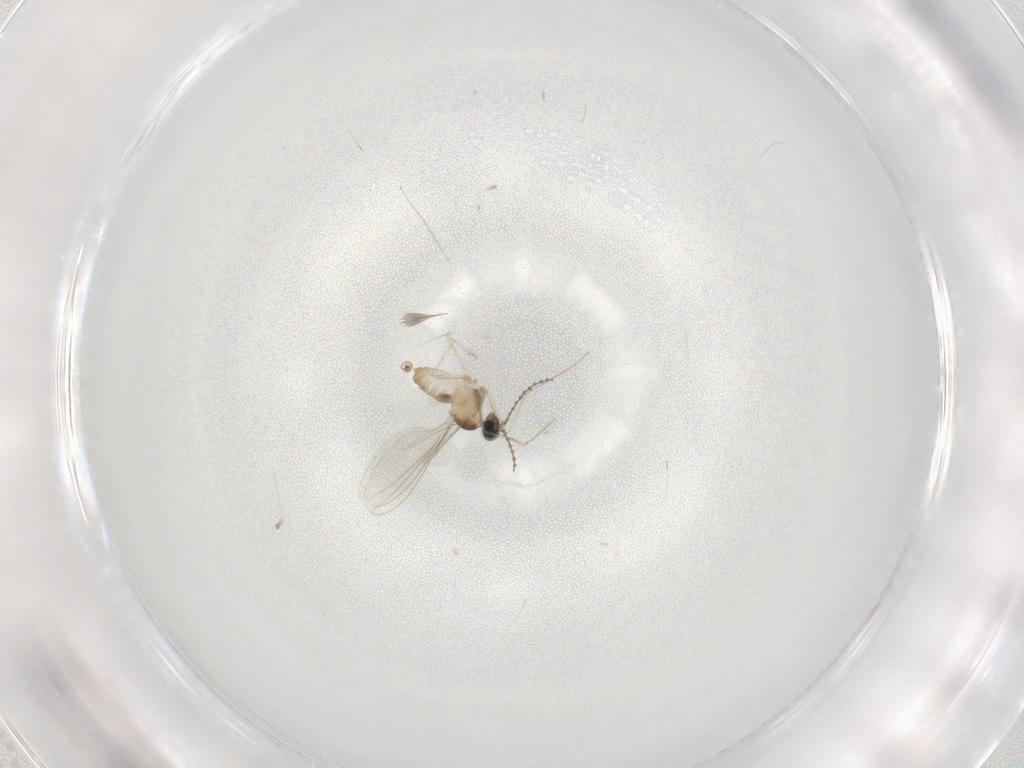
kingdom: Animalia
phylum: Arthropoda
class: Insecta
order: Diptera
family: Cecidomyiidae
